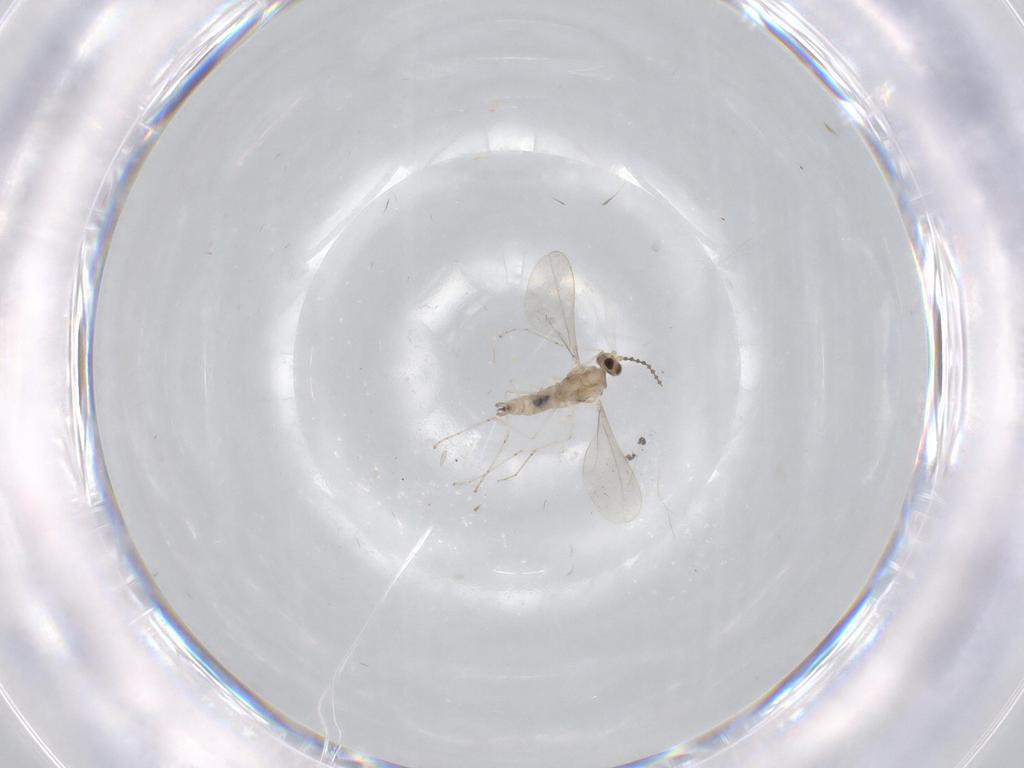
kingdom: Animalia
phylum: Arthropoda
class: Insecta
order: Diptera
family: Cecidomyiidae
